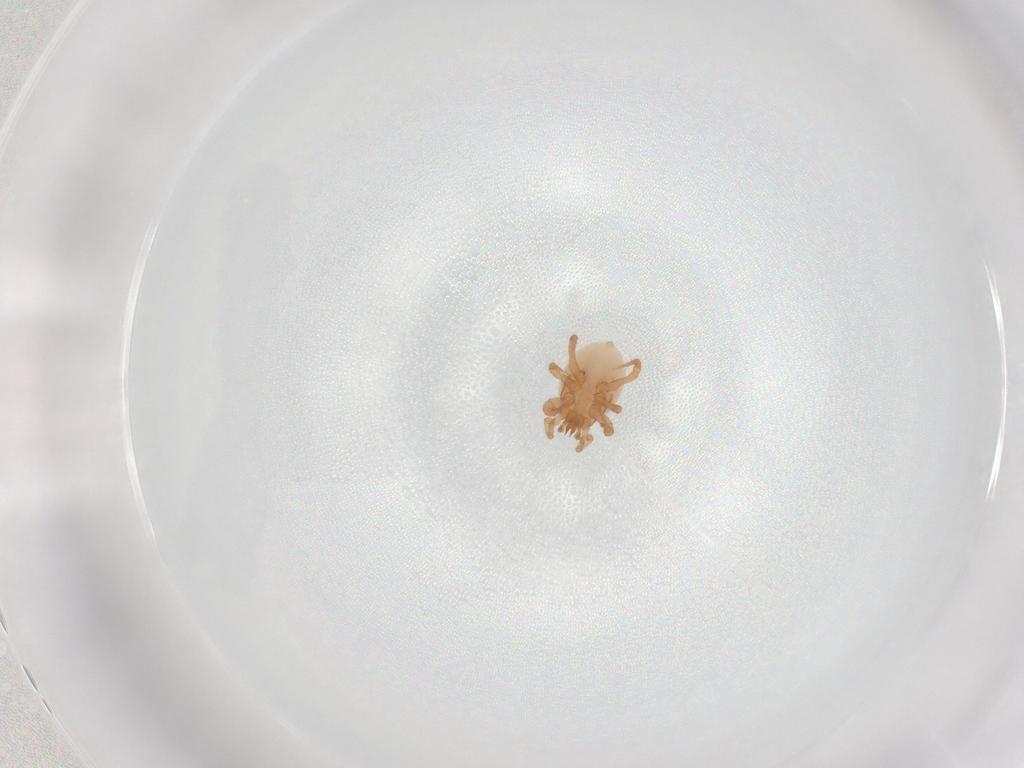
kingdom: Animalia
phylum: Arthropoda
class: Arachnida
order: Mesostigmata
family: Parasitidae
